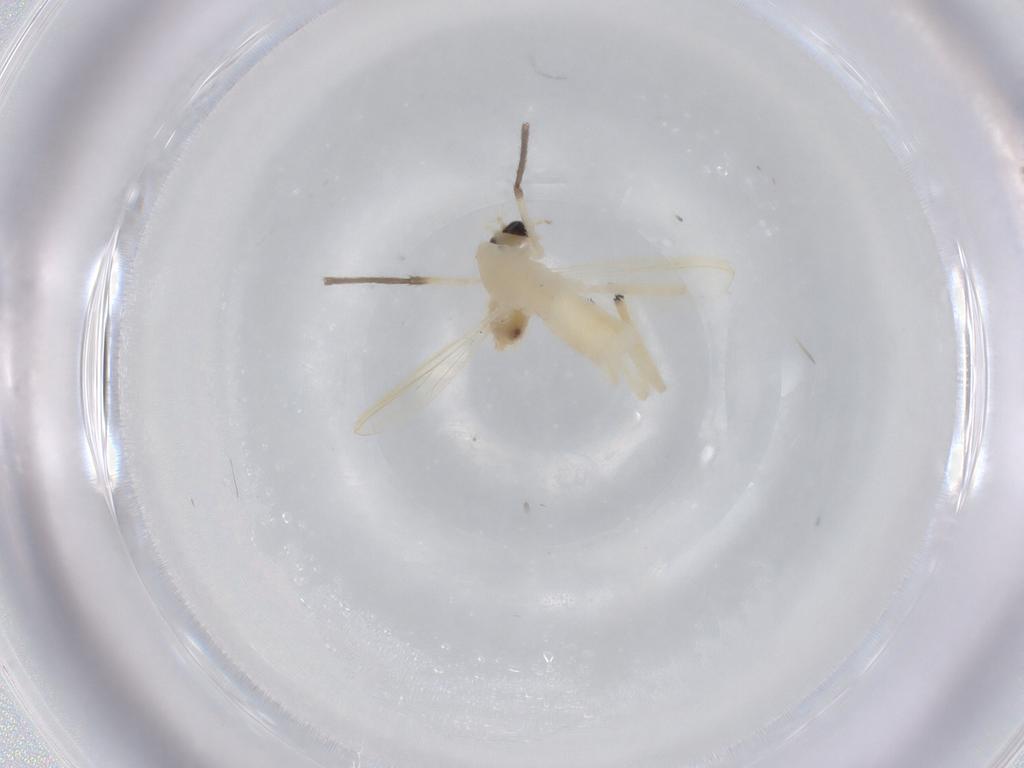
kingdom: Animalia
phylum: Arthropoda
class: Insecta
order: Diptera
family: Chironomidae
